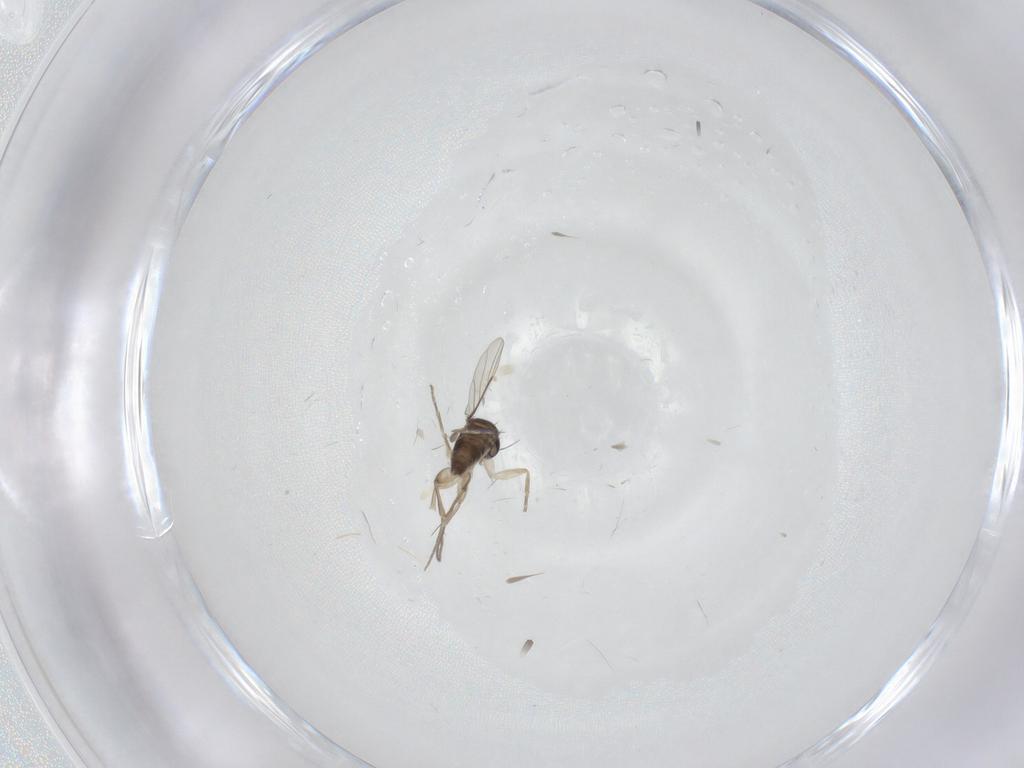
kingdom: Animalia
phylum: Arthropoda
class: Insecta
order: Diptera
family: Phoridae
